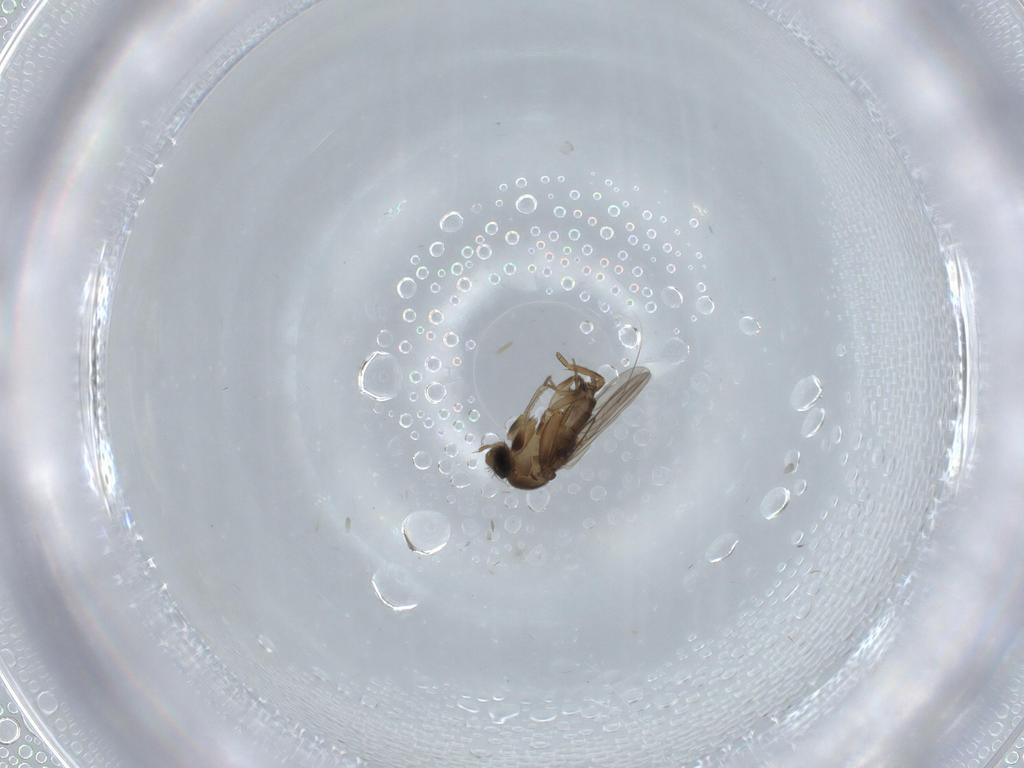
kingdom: Animalia
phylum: Arthropoda
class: Insecta
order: Diptera
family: Phoridae
